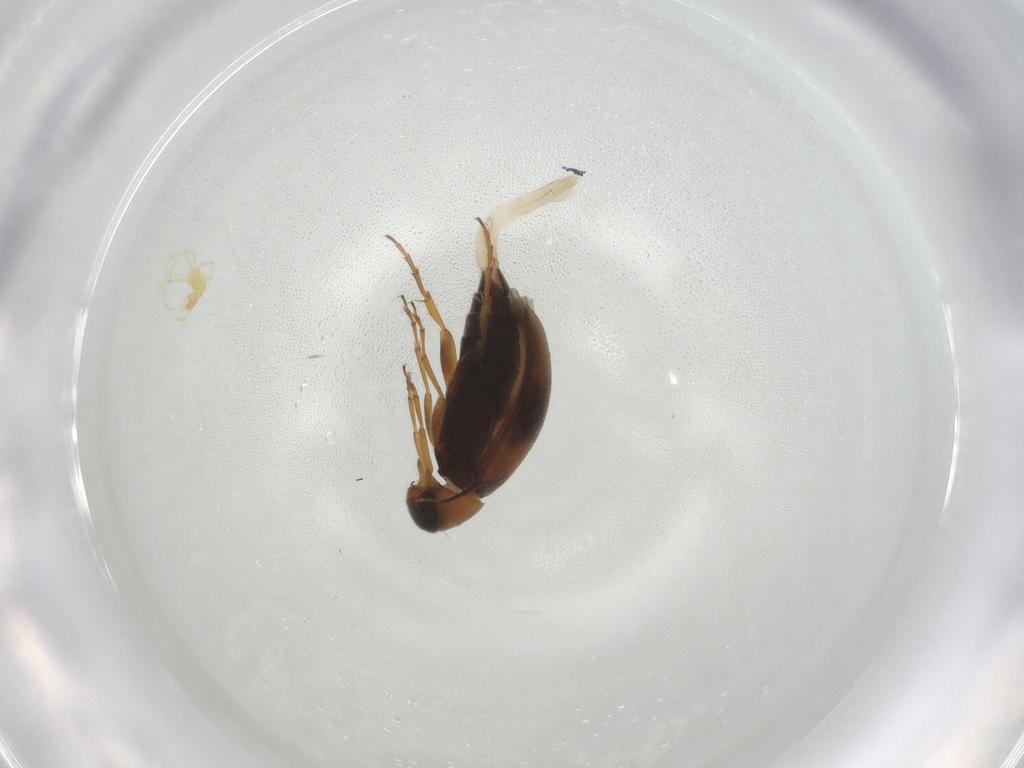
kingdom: Animalia
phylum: Arthropoda
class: Insecta
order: Coleoptera
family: Scraptiidae
